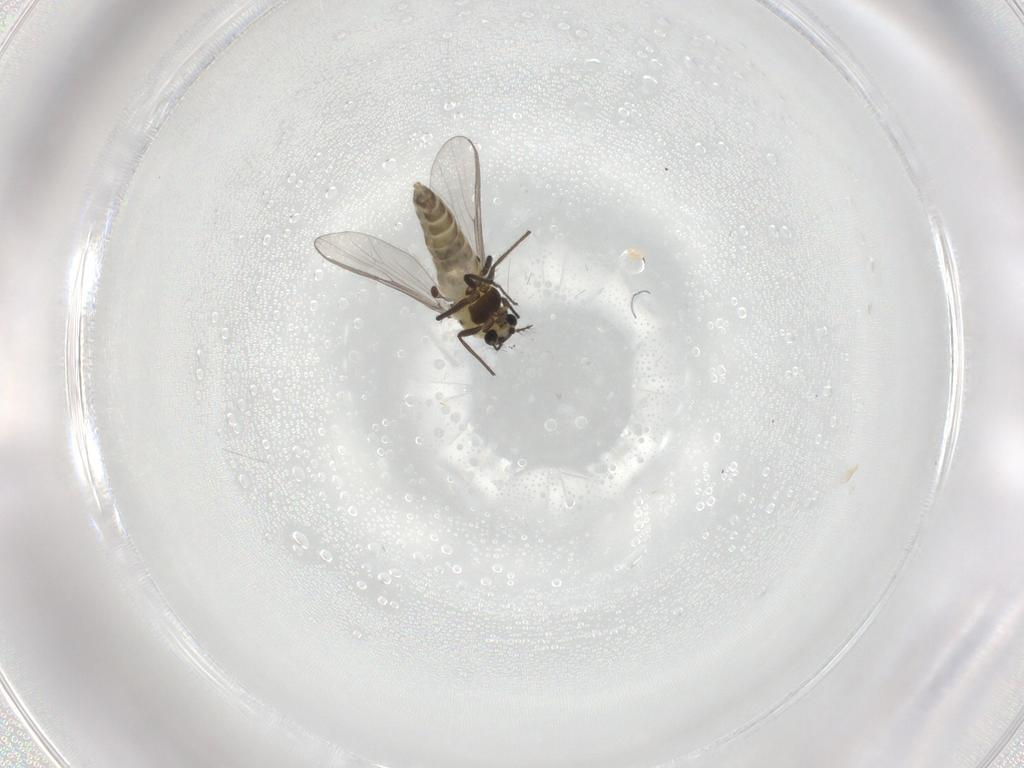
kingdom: Animalia
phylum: Arthropoda
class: Insecta
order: Diptera
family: Chironomidae
